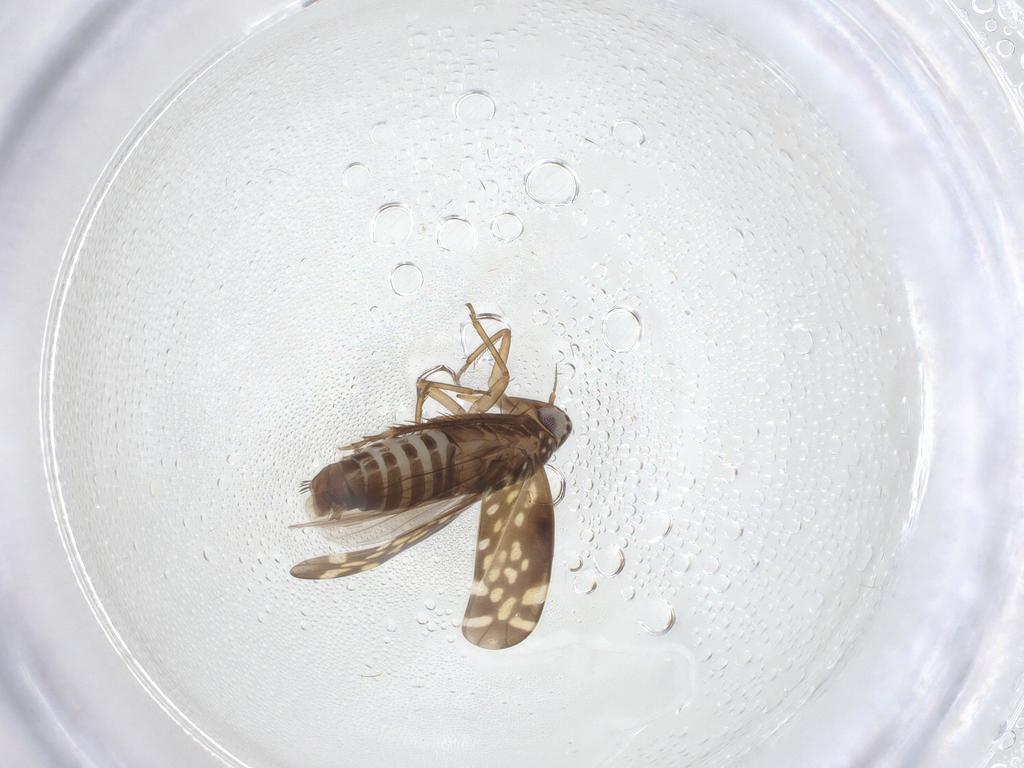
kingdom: Animalia
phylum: Arthropoda
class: Insecta
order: Hemiptera
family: Cicadellidae
